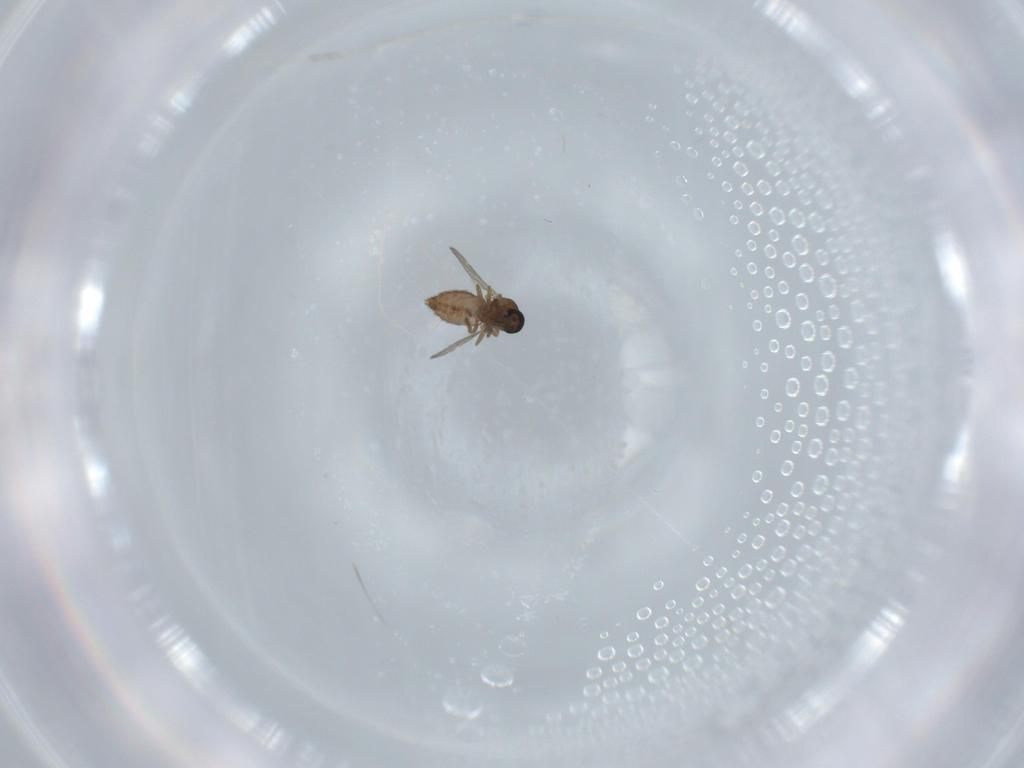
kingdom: Animalia
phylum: Arthropoda
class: Insecta
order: Diptera
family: Ceratopogonidae
